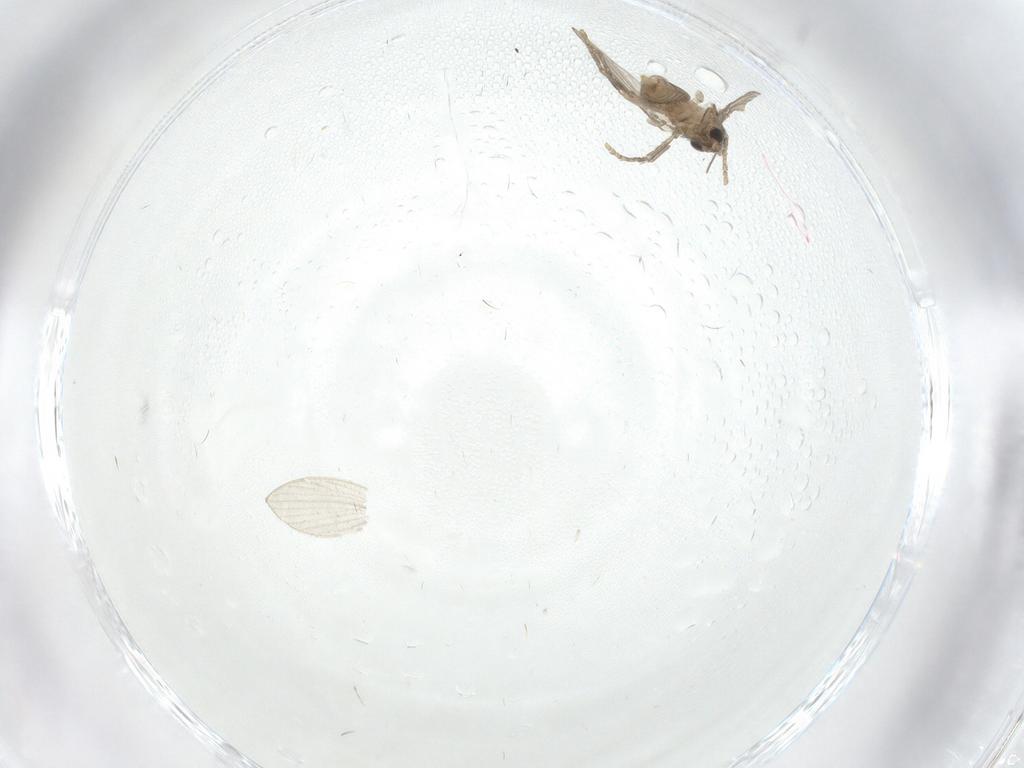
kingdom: Animalia
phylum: Arthropoda
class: Insecta
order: Diptera
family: Chironomidae
